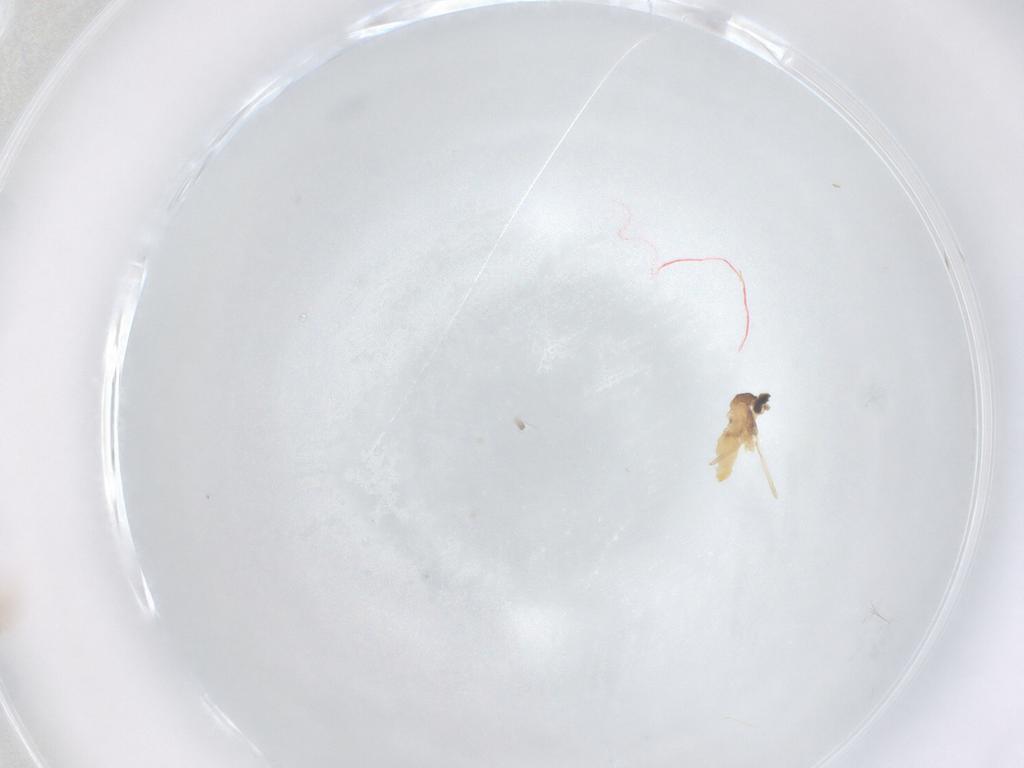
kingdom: Animalia
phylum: Arthropoda
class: Insecta
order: Diptera
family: Cecidomyiidae
